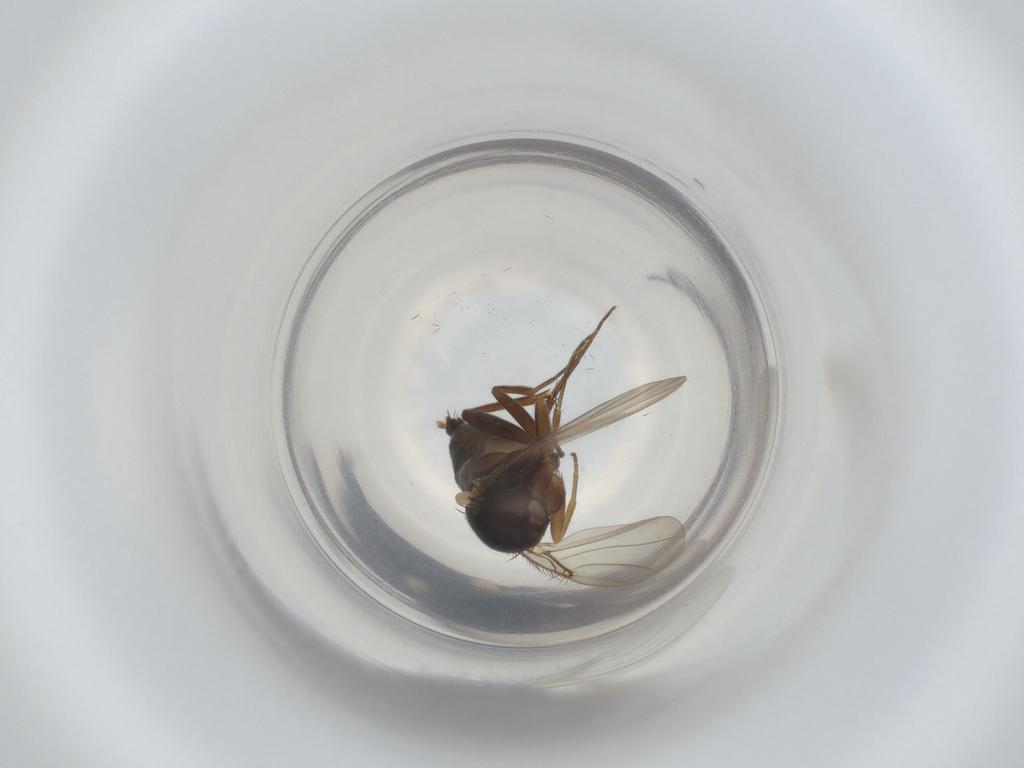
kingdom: Animalia
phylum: Arthropoda
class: Insecta
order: Diptera
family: Phoridae
